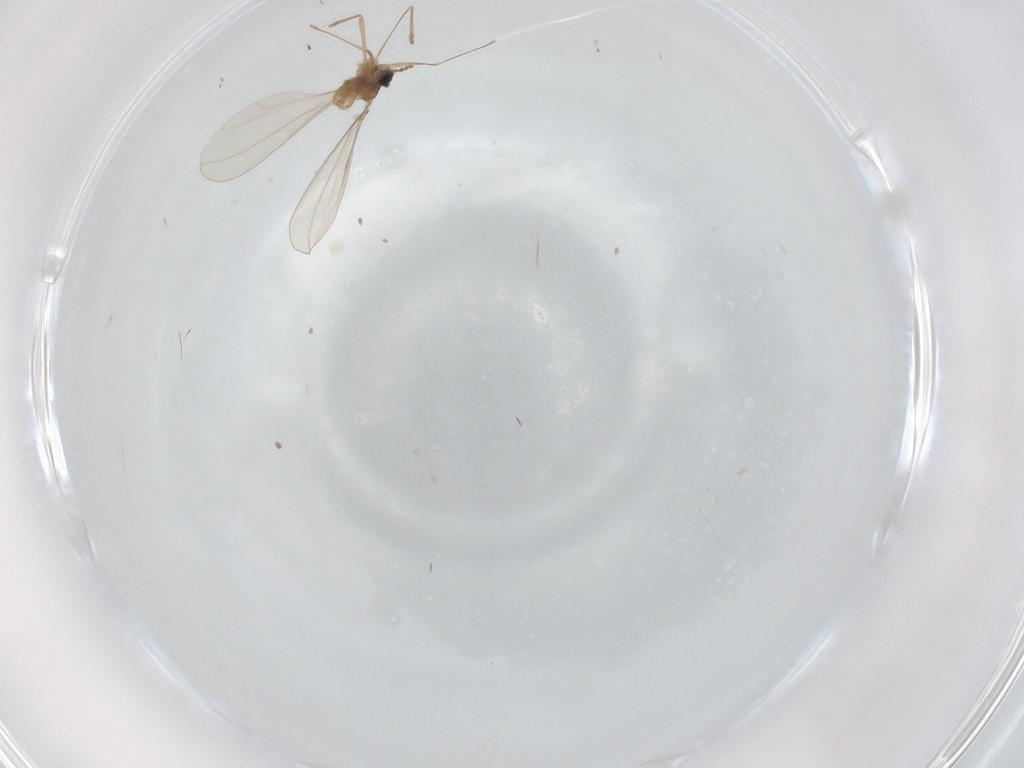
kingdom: Animalia
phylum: Arthropoda
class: Insecta
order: Diptera
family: Cecidomyiidae
